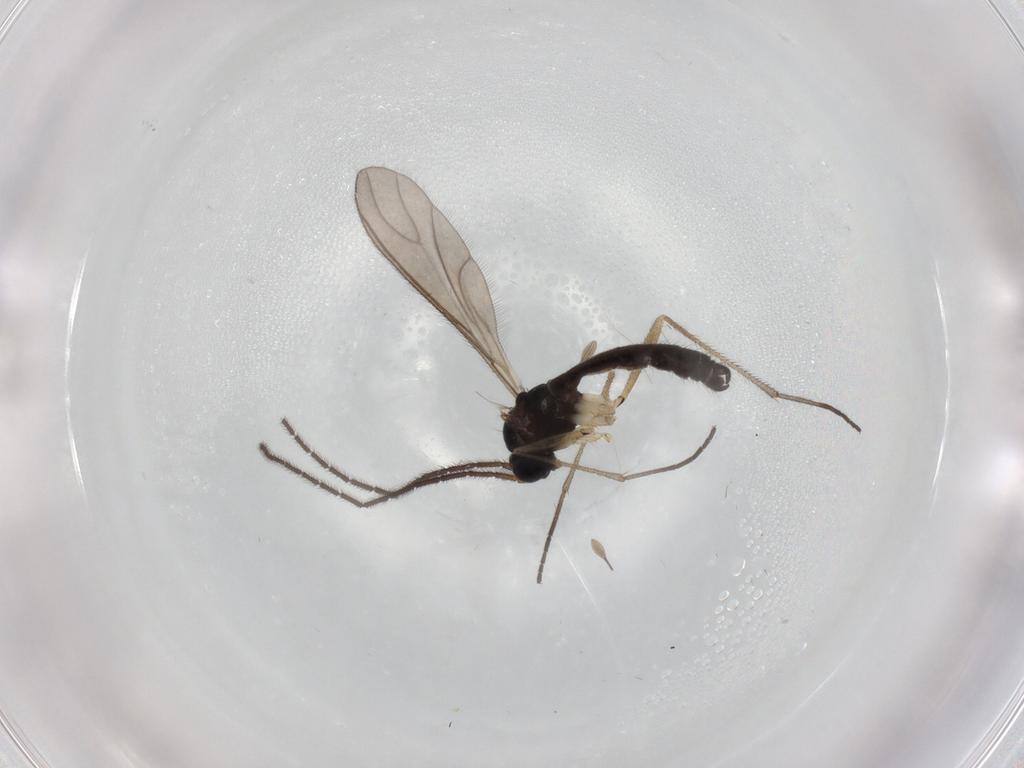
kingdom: Animalia
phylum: Arthropoda
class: Insecta
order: Diptera
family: Sciaridae
